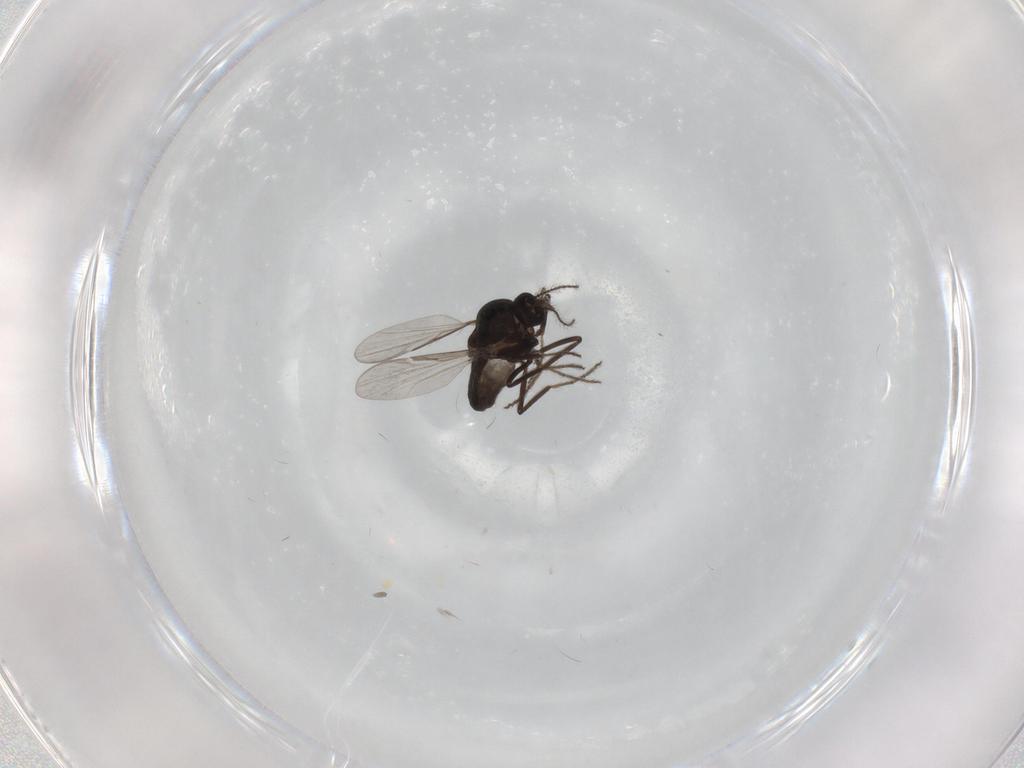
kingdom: Animalia
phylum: Arthropoda
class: Insecta
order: Diptera
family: Ceratopogonidae
